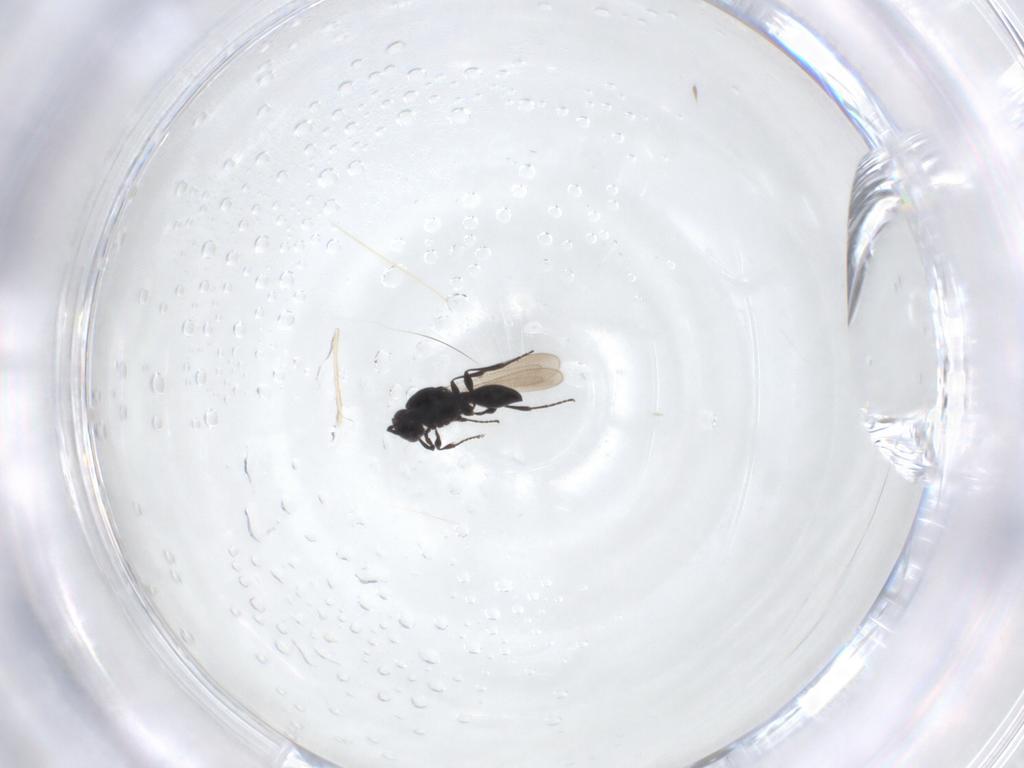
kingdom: Animalia
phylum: Arthropoda
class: Insecta
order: Hymenoptera
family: Platygastridae
